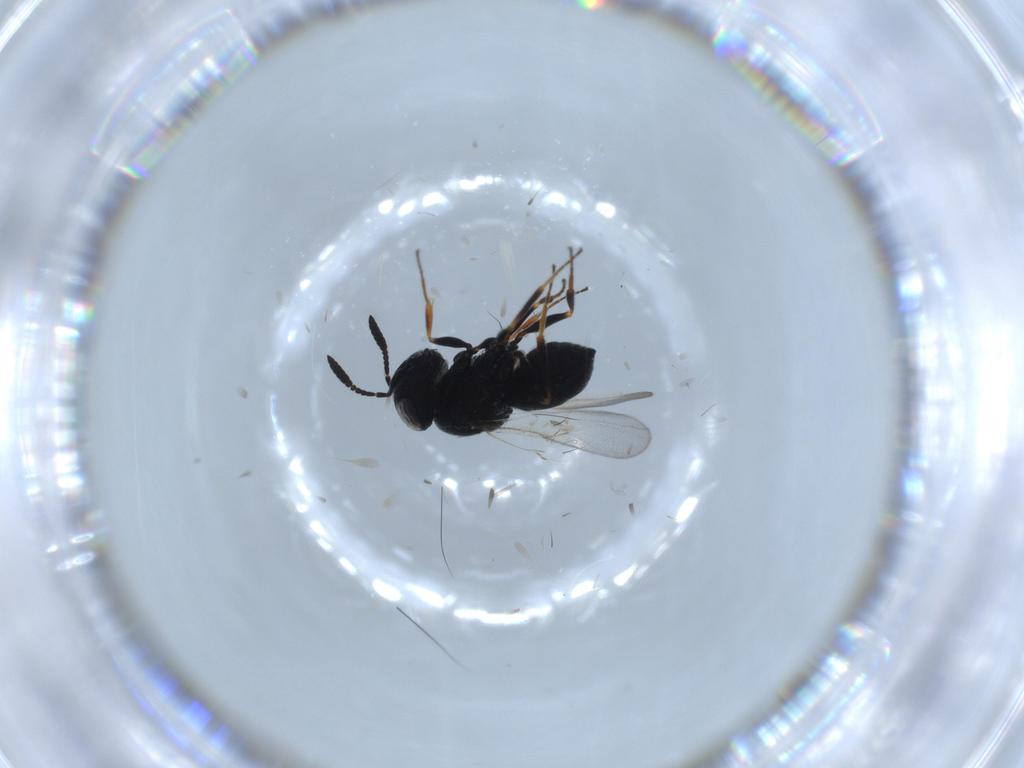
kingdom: Animalia
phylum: Arthropoda
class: Insecta
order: Hymenoptera
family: Scelionidae
